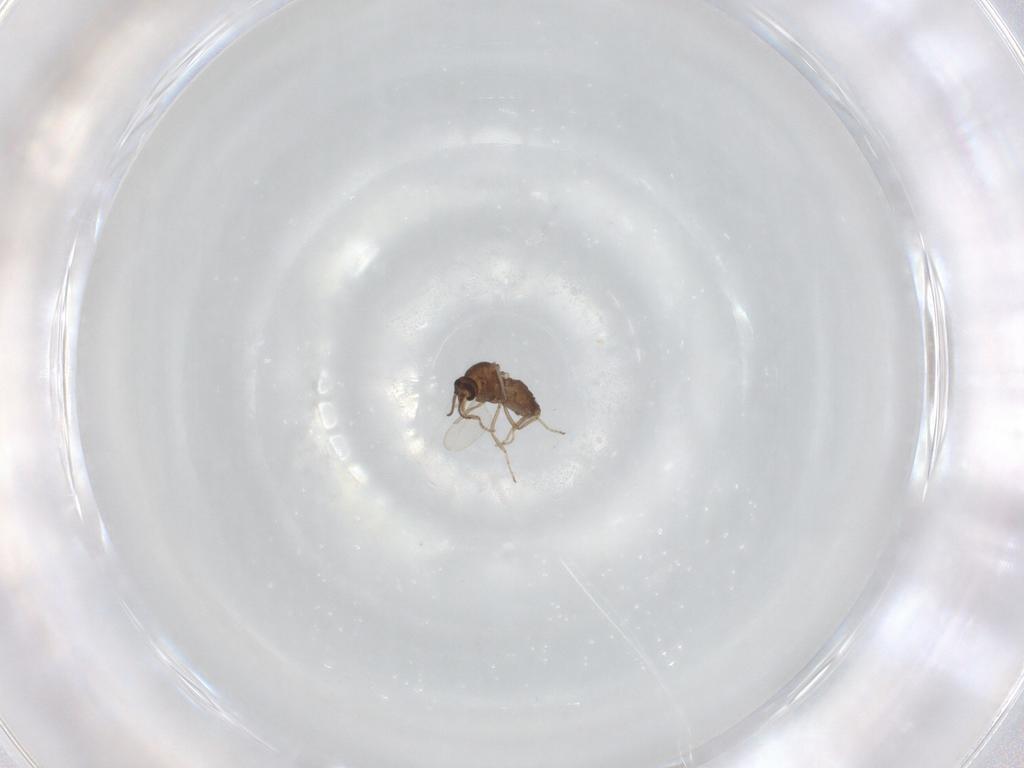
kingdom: Animalia
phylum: Arthropoda
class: Insecta
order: Diptera
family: Ceratopogonidae
